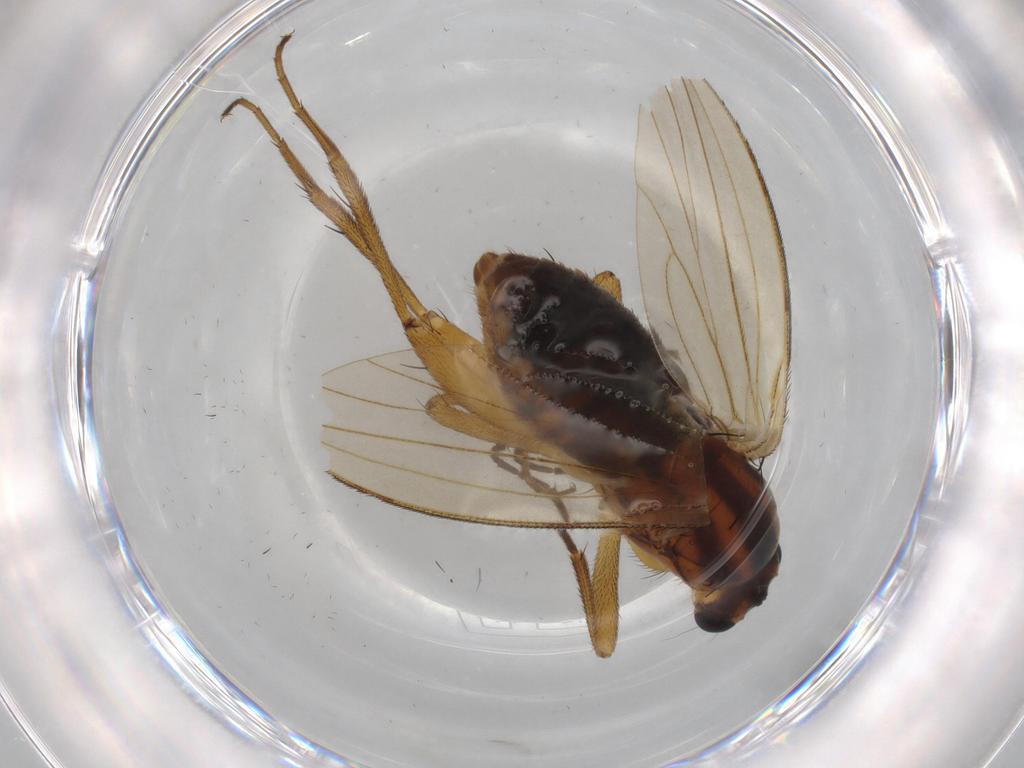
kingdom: Animalia
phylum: Arthropoda
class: Insecta
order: Diptera
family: Lonchopteridae
